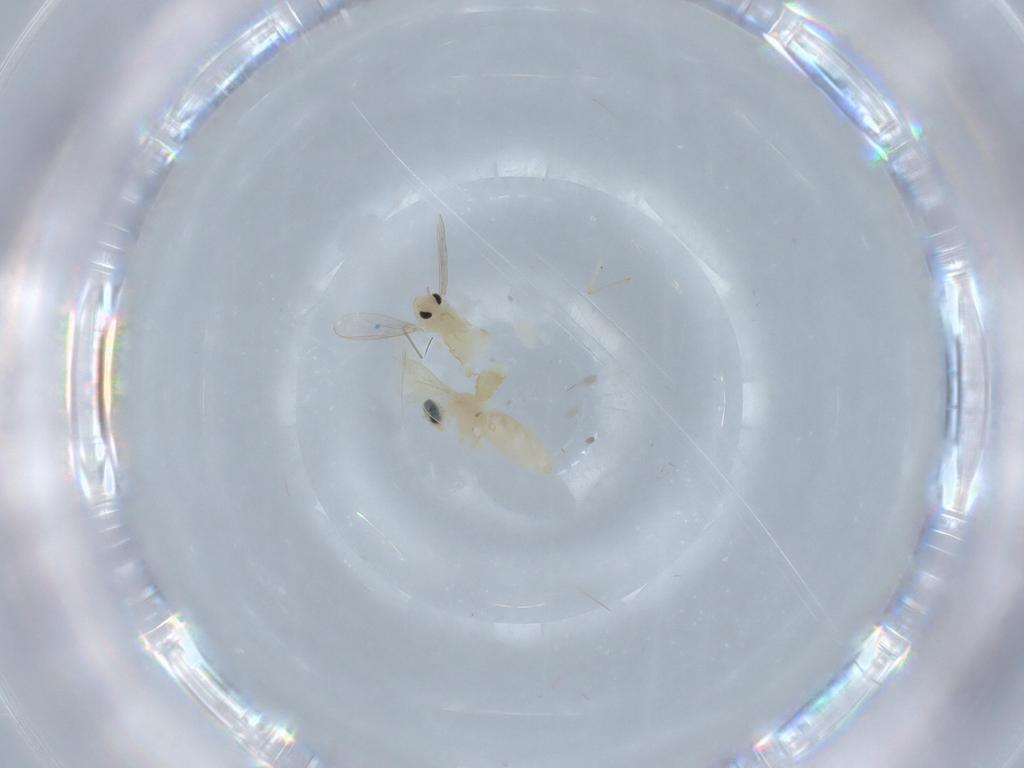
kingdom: Animalia
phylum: Arthropoda
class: Insecta
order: Diptera
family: Cecidomyiidae
